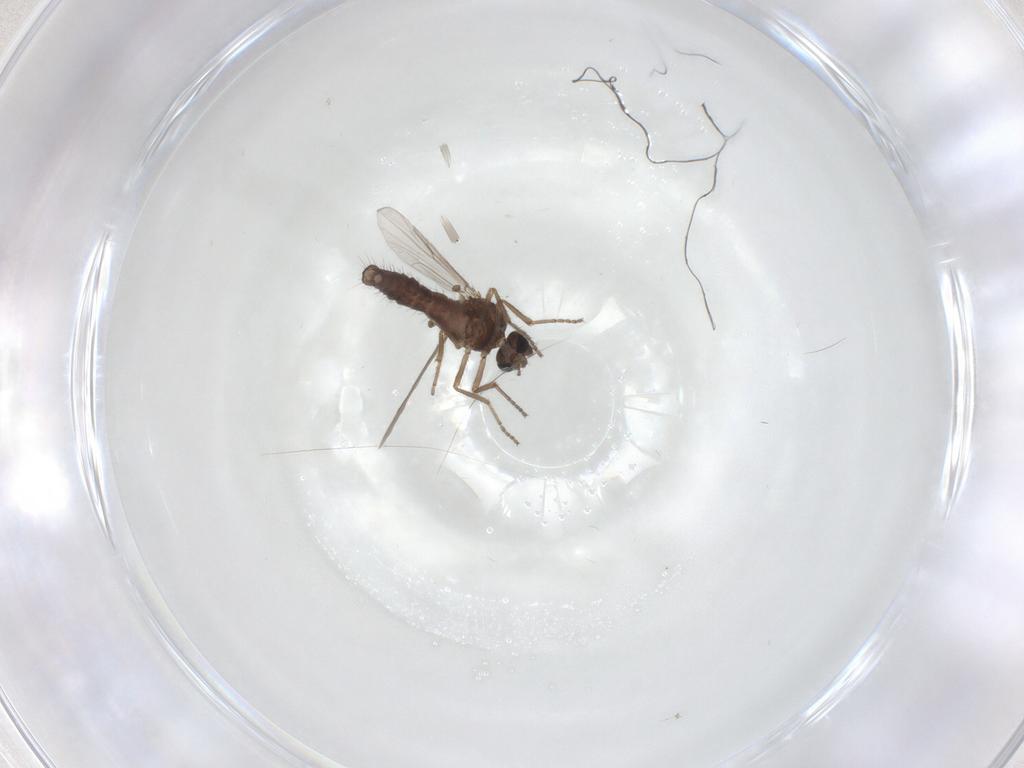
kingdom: Animalia
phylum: Arthropoda
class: Insecta
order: Diptera
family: Ceratopogonidae
